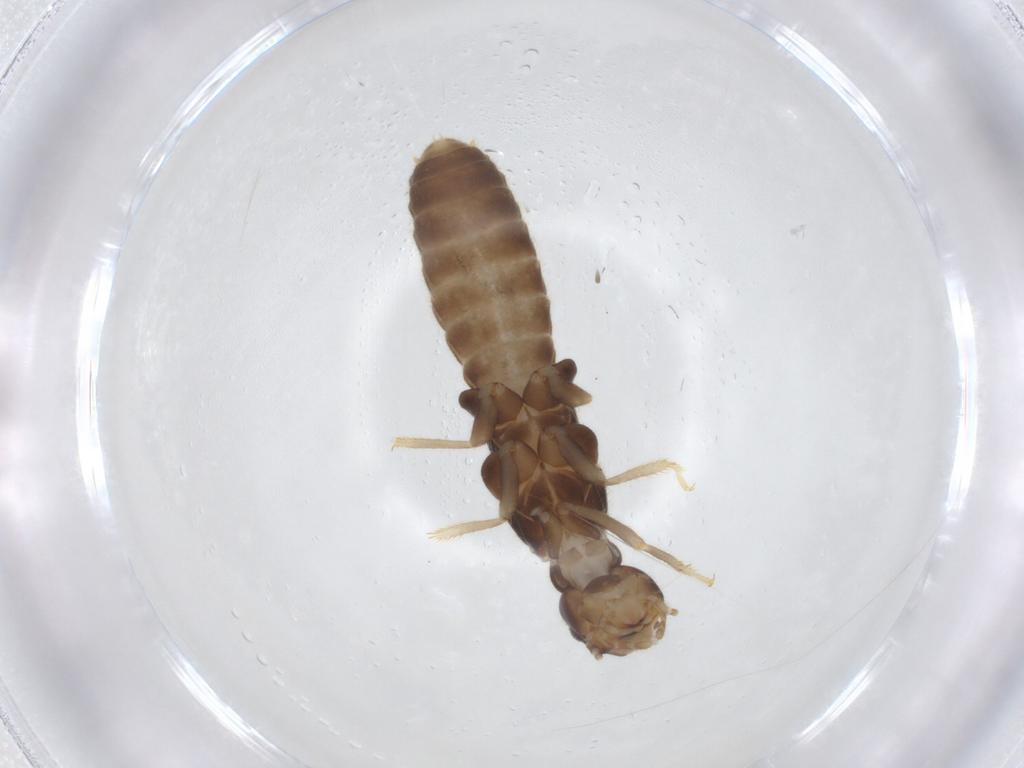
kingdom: Animalia
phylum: Arthropoda
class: Insecta
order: Blattodea
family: Rhinotermitidae
